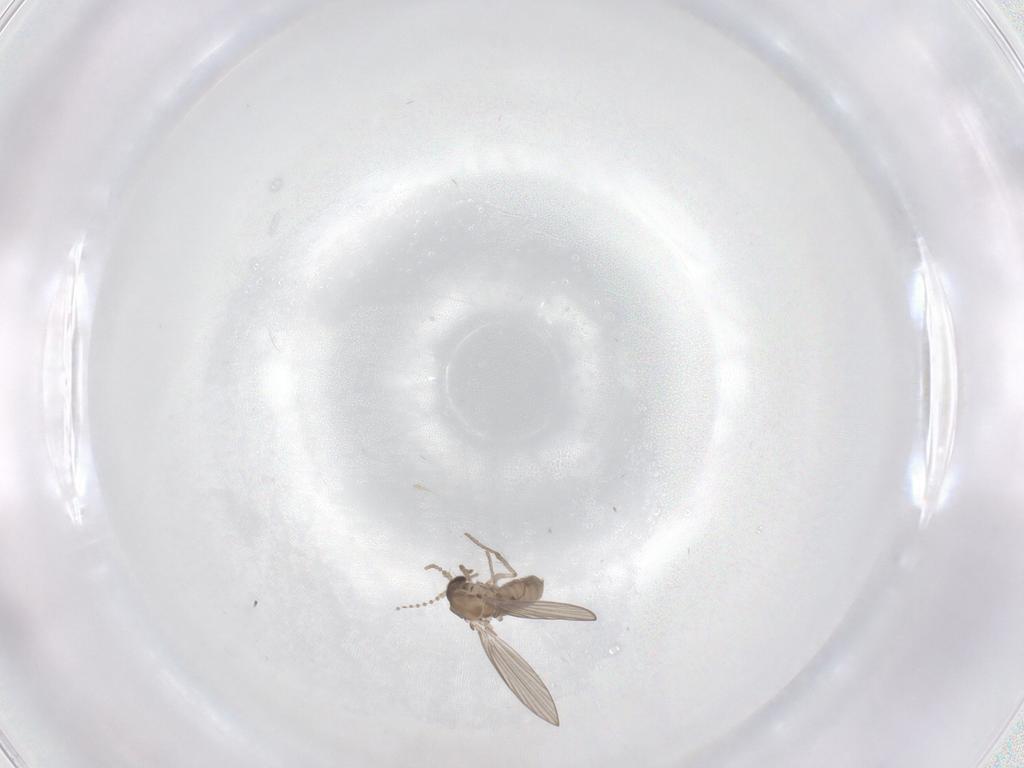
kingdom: Animalia
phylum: Arthropoda
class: Insecta
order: Diptera
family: Psychodidae
